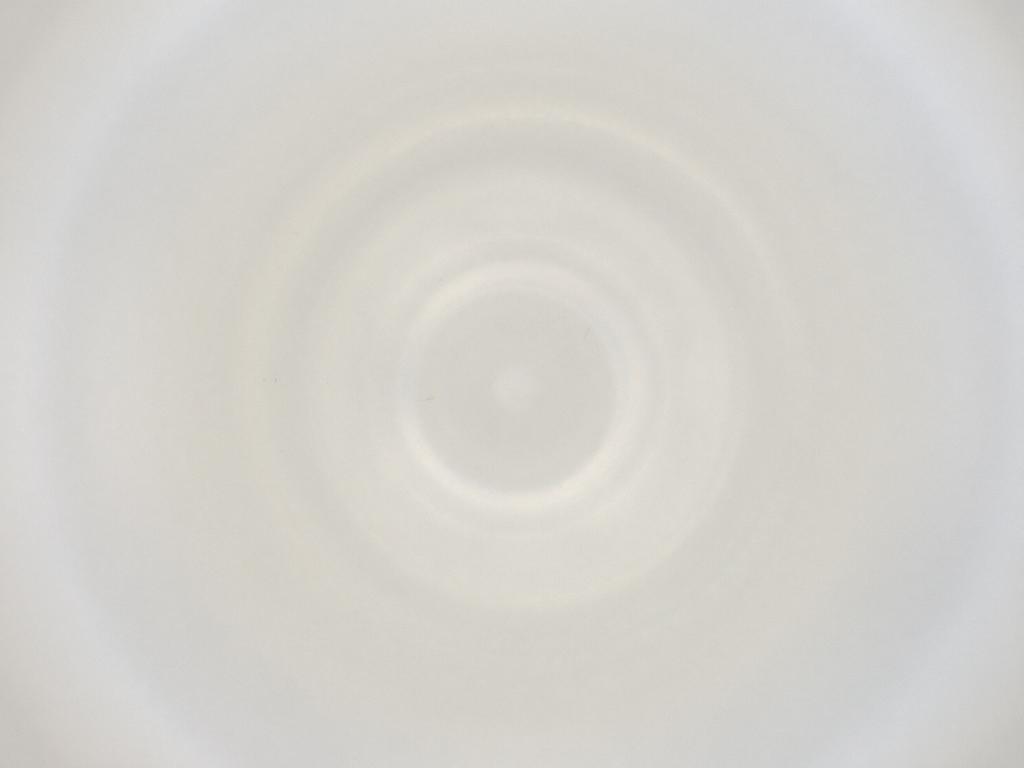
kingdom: Animalia
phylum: Arthropoda
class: Insecta
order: Diptera
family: Cecidomyiidae
